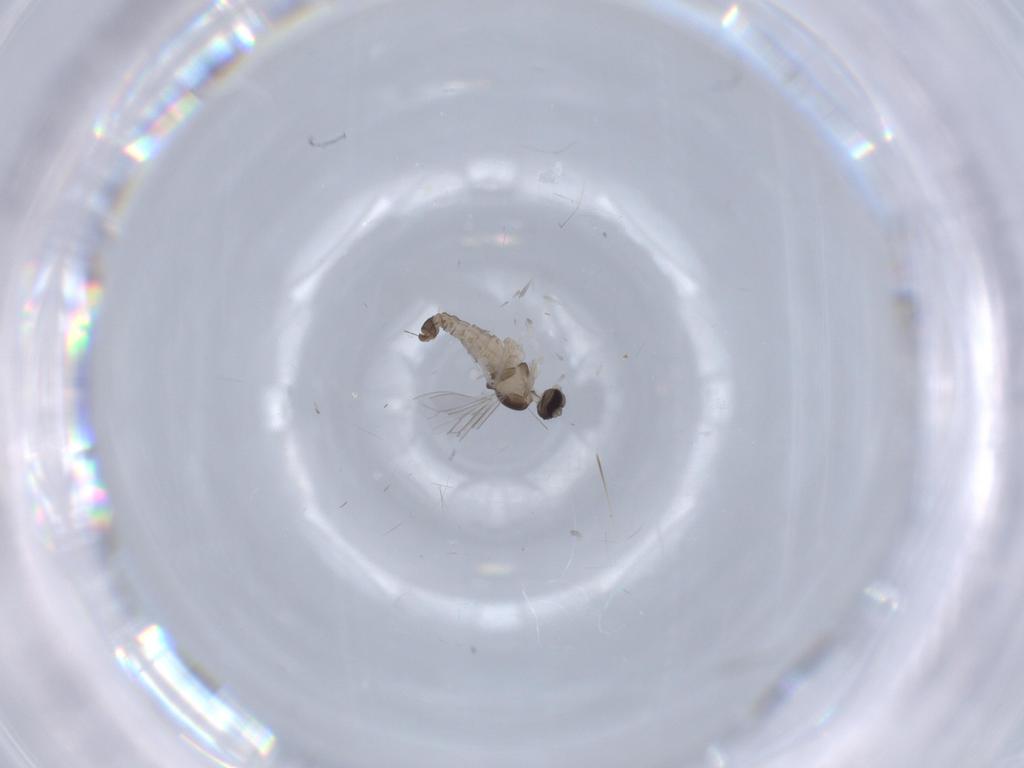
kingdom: Animalia
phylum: Arthropoda
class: Insecta
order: Diptera
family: Cecidomyiidae
